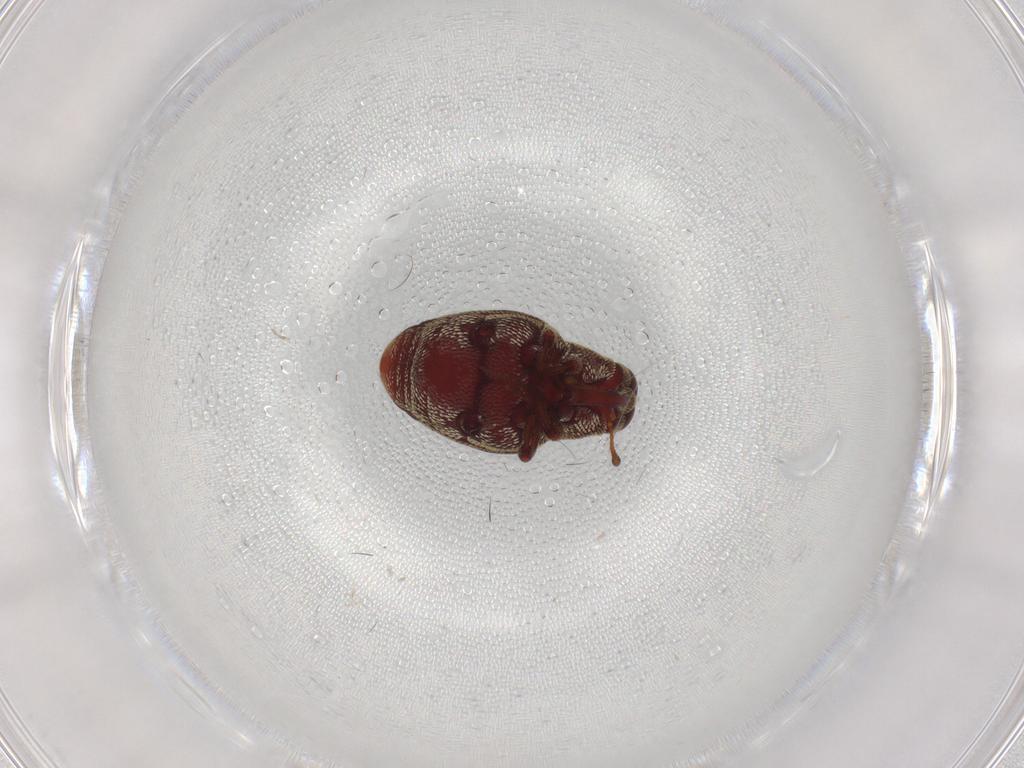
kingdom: Animalia
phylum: Arthropoda
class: Insecta
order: Coleoptera
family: Curculionidae
